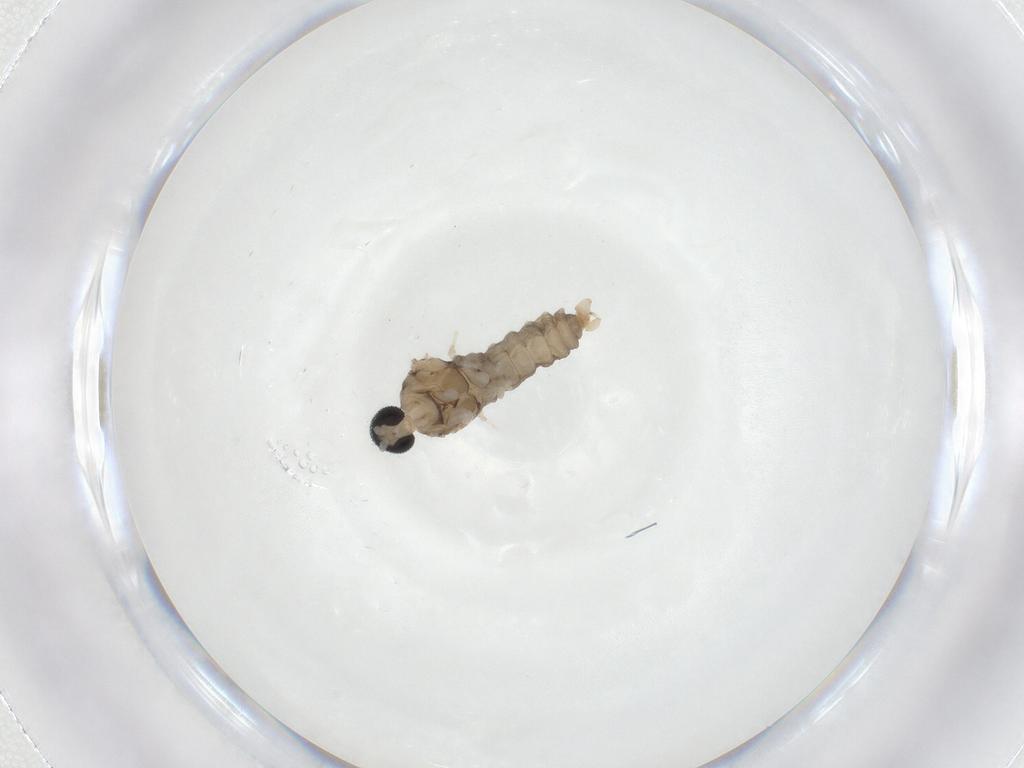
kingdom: Animalia
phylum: Arthropoda
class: Insecta
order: Diptera
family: Cecidomyiidae
